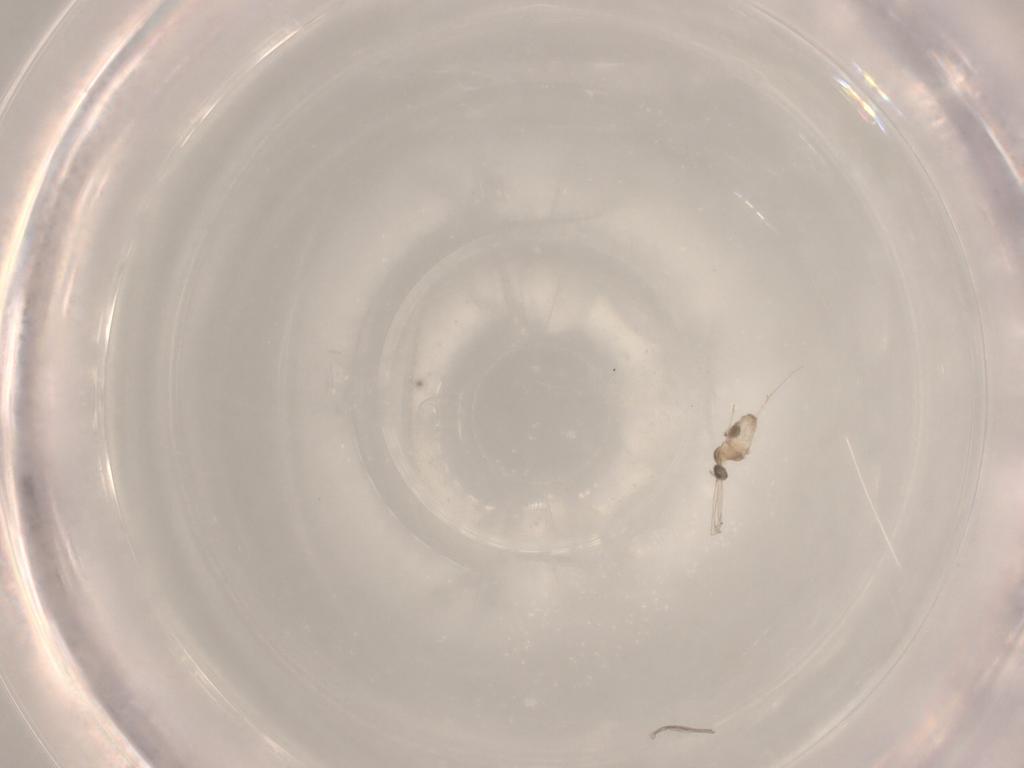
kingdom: Animalia
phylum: Arthropoda
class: Insecta
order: Diptera
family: Cecidomyiidae
